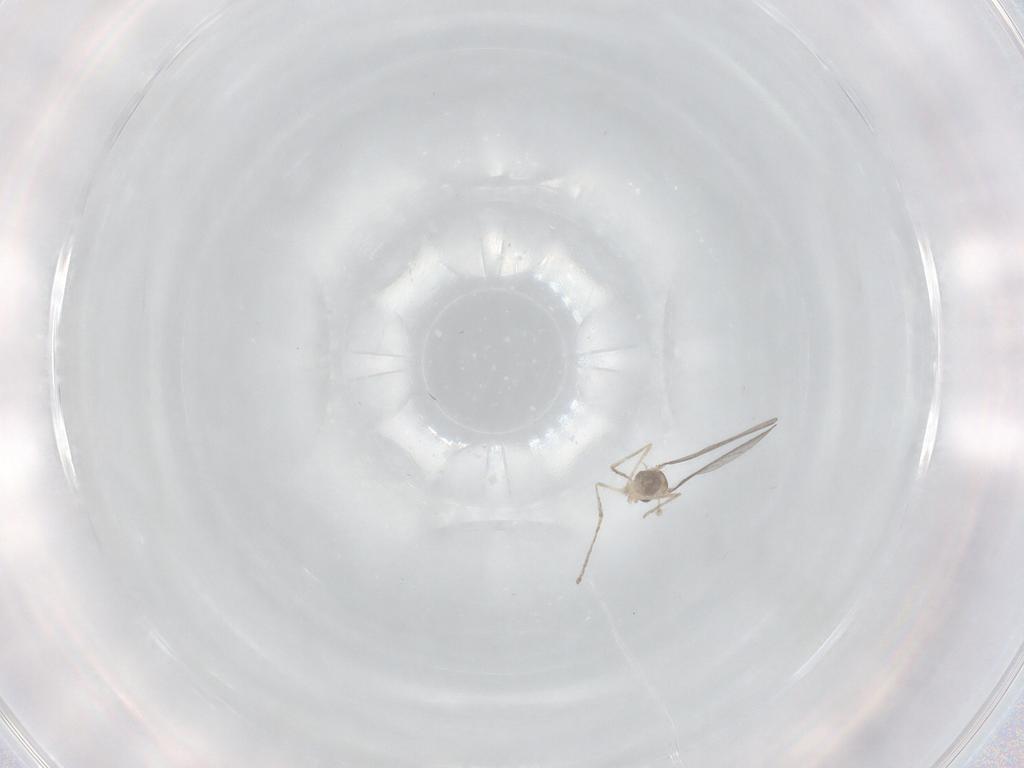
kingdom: Animalia
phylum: Arthropoda
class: Insecta
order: Diptera
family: Cecidomyiidae
